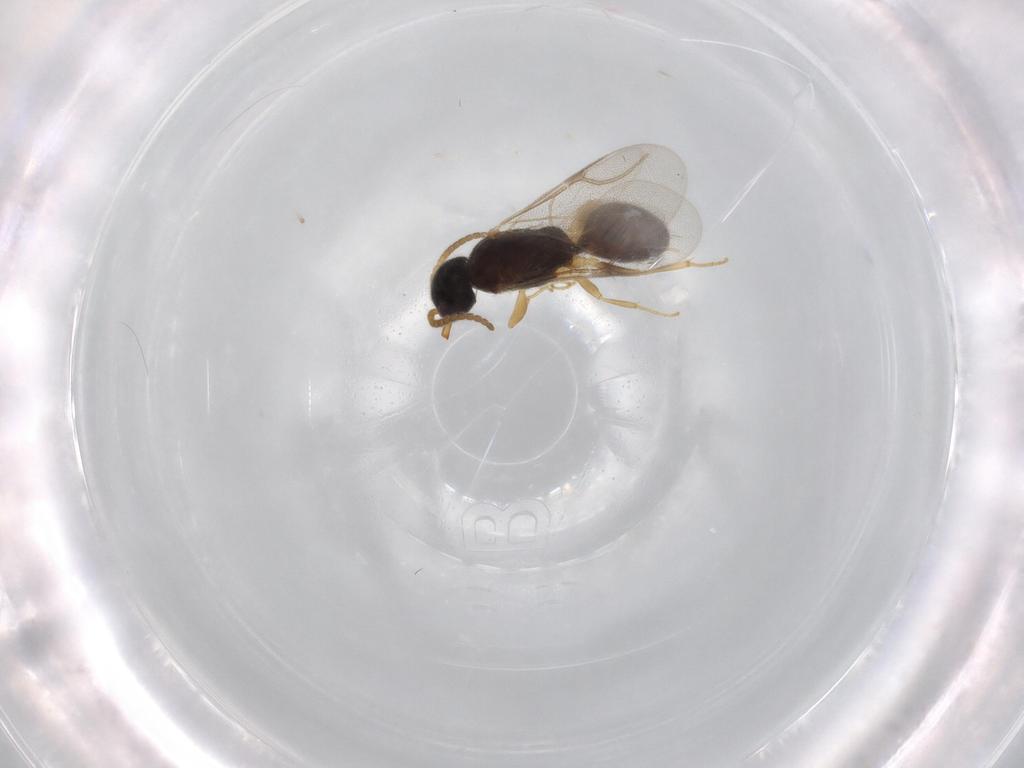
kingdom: Animalia
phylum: Arthropoda
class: Insecta
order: Hymenoptera
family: Bethylidae
